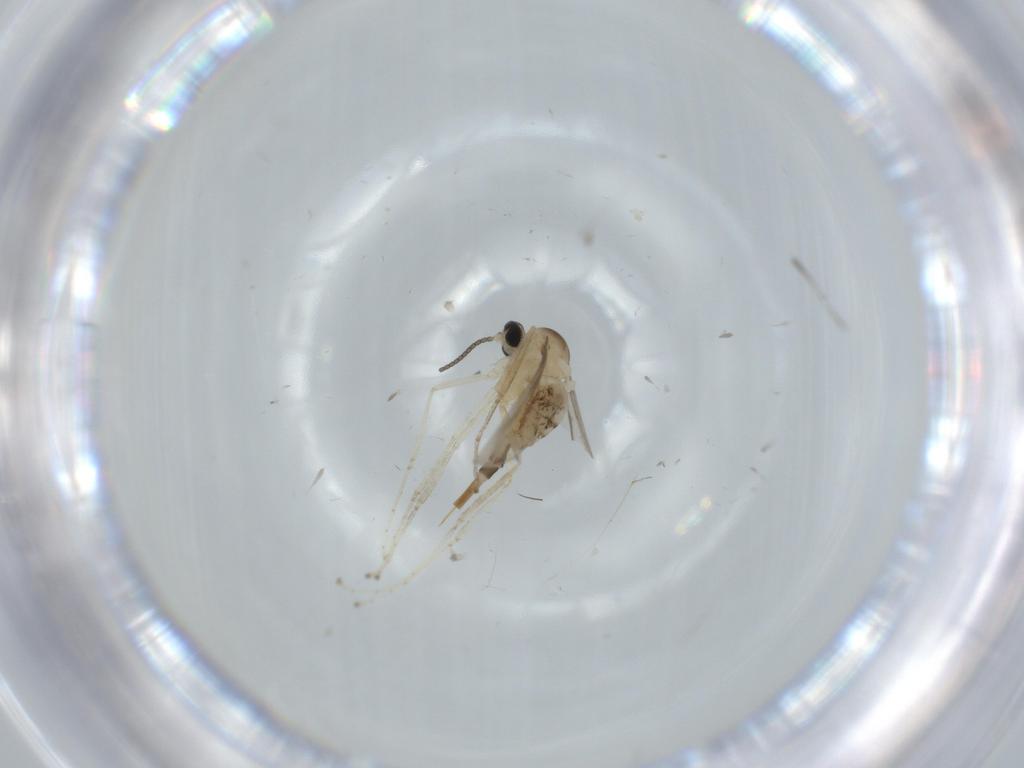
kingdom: Animalia
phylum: Arthropoda
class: Insecta
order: Diptera
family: Cecidomyiidae
